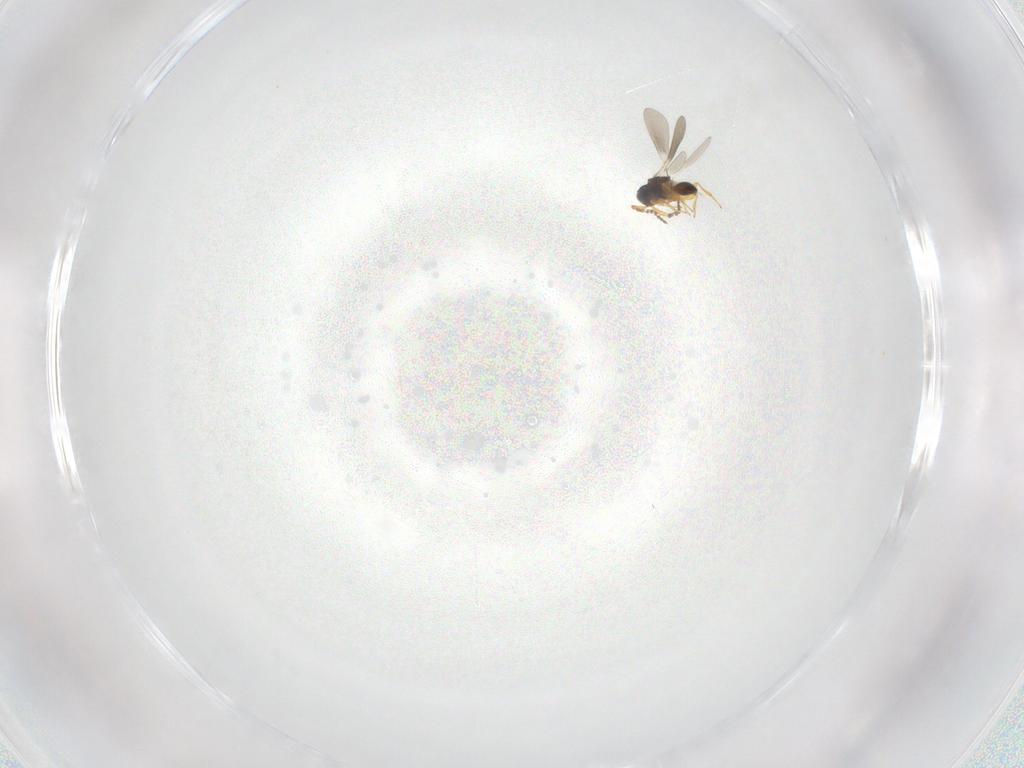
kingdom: Animalia
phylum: Arthropoda
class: Insecta
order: Hymenoptera
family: Platygastridae
